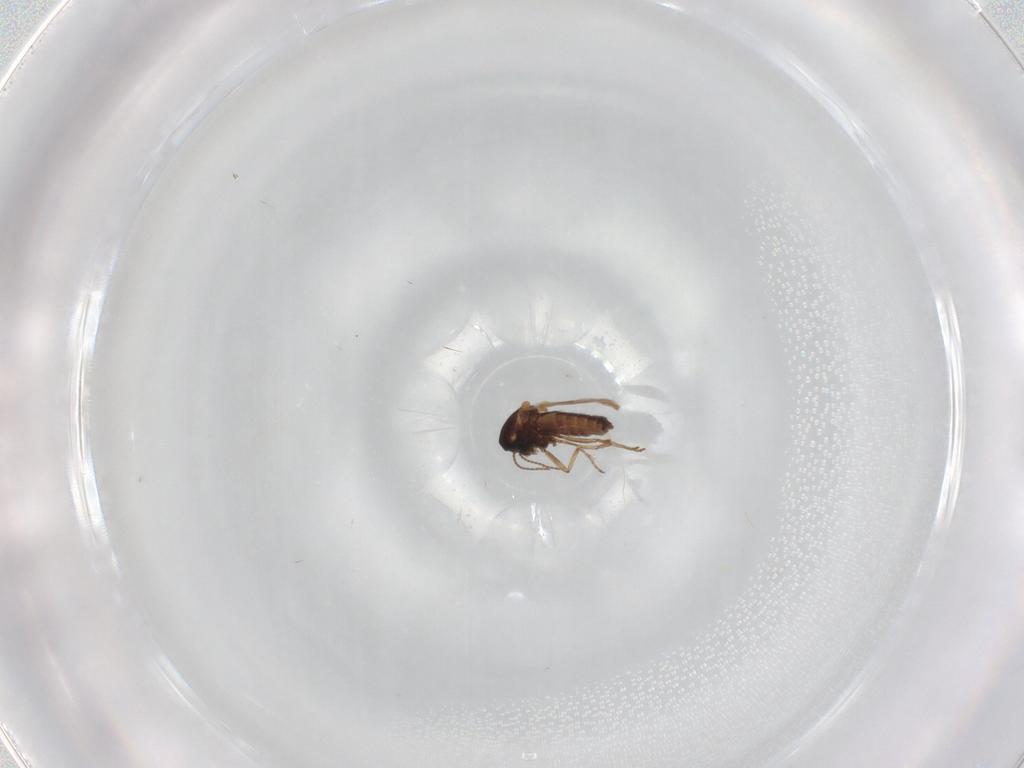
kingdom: Animalia
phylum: Arthropoda
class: Insecta
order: Diptera
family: Ceratopogonidae
